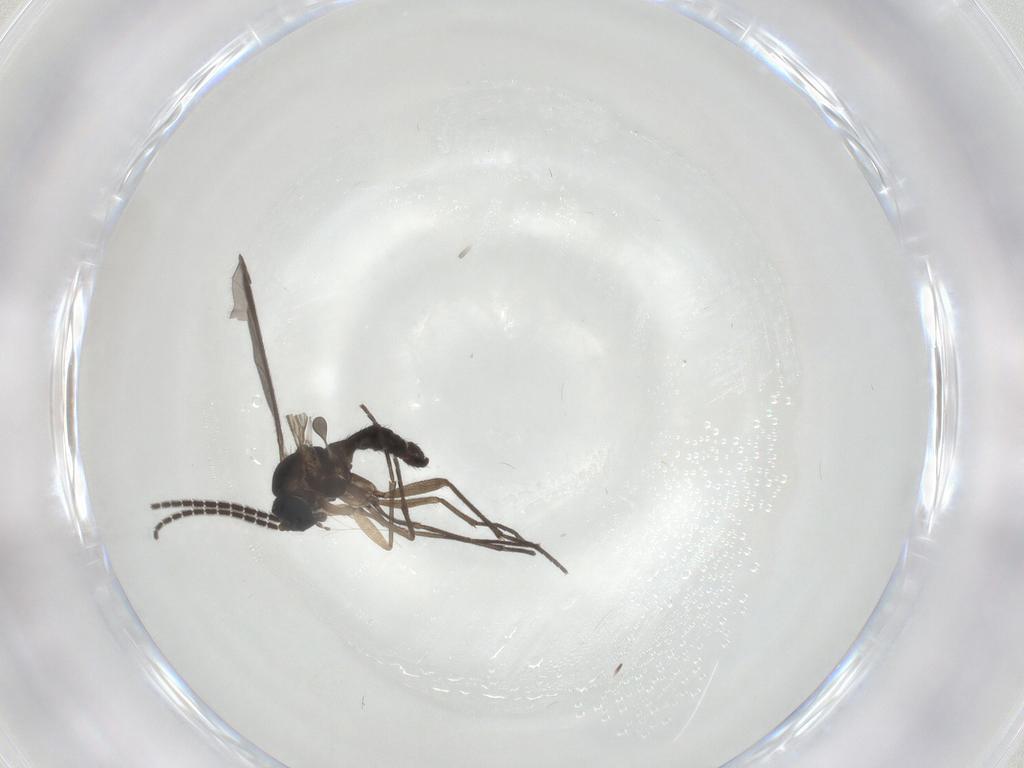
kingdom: Animalia
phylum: Arthropoda
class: Insecta
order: Diptera
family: Sciaridae
